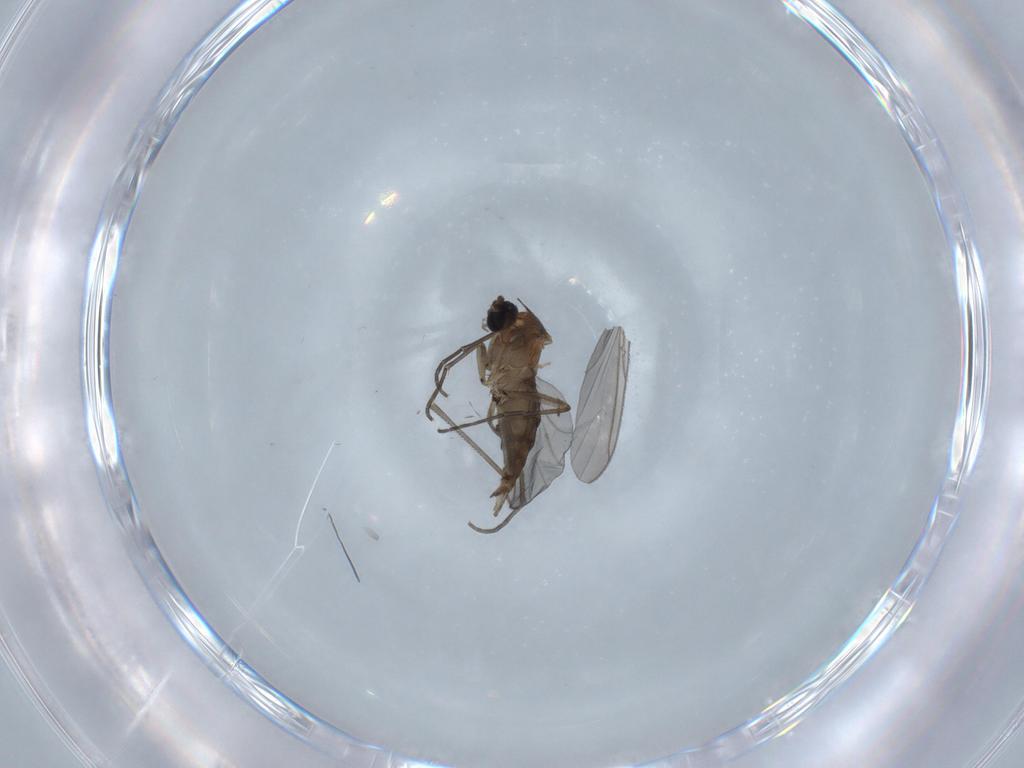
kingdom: Animalia
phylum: Arthropoda
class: Insecta
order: Diptera
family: Sciaridae
